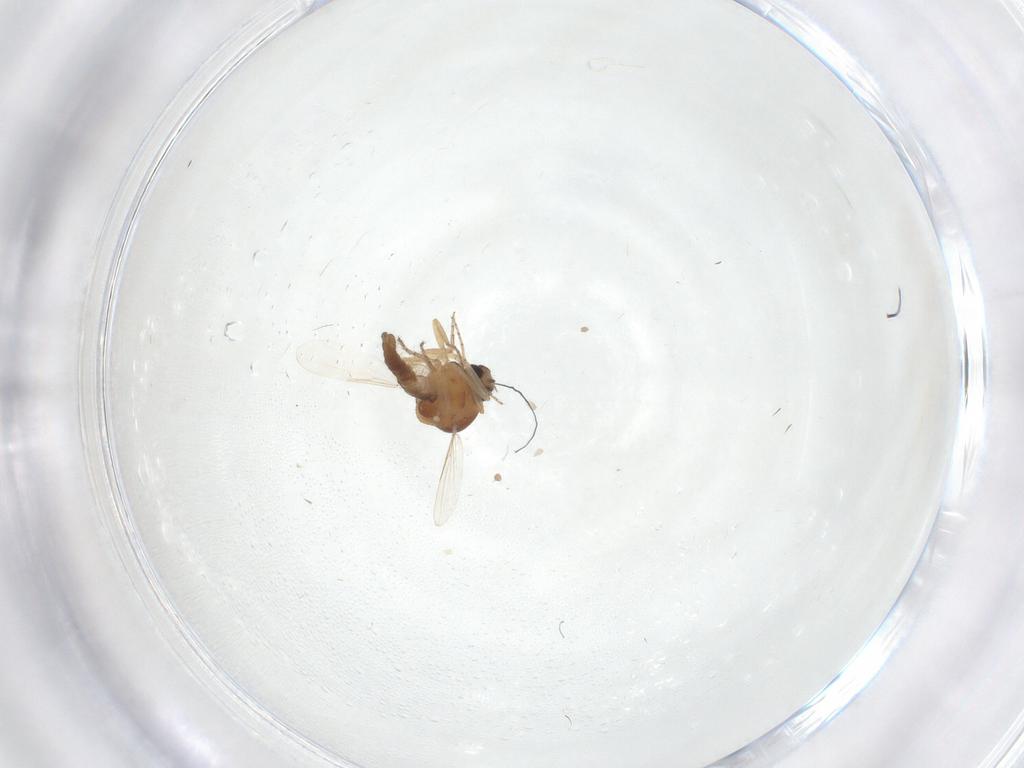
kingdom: Animalia
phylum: Arthropoda
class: Insecta
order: Diptera
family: Ceratopogonidae
